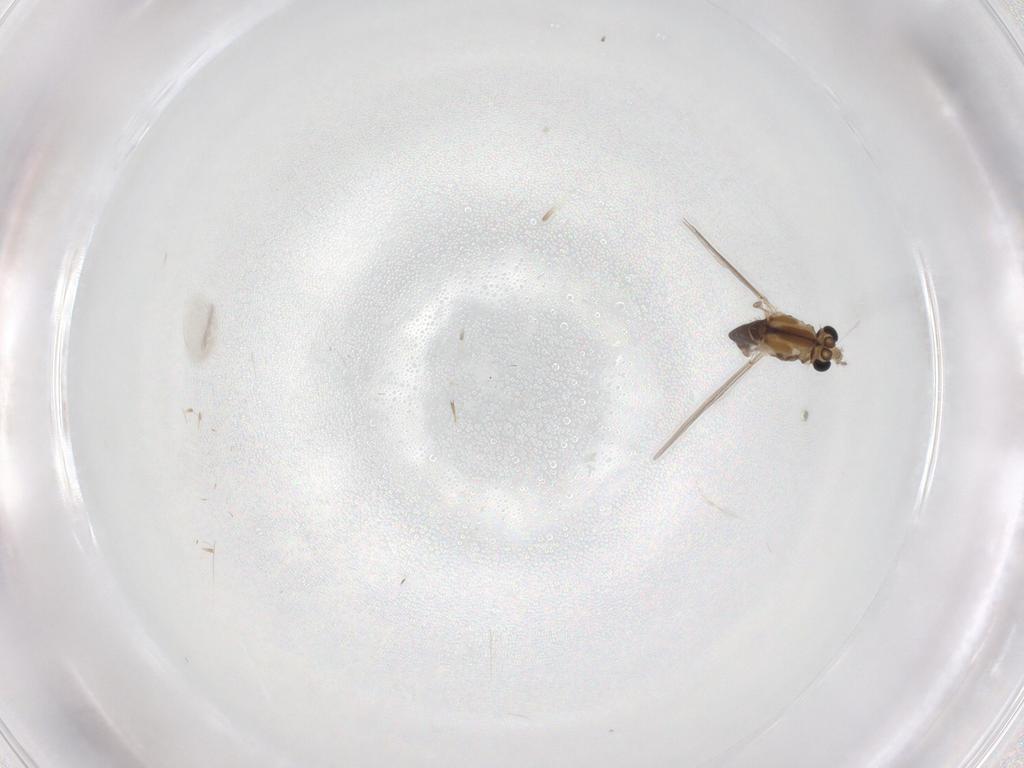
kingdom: Animalia
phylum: Arthropoda
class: Insecta
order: Diptera
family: Chironomidae
